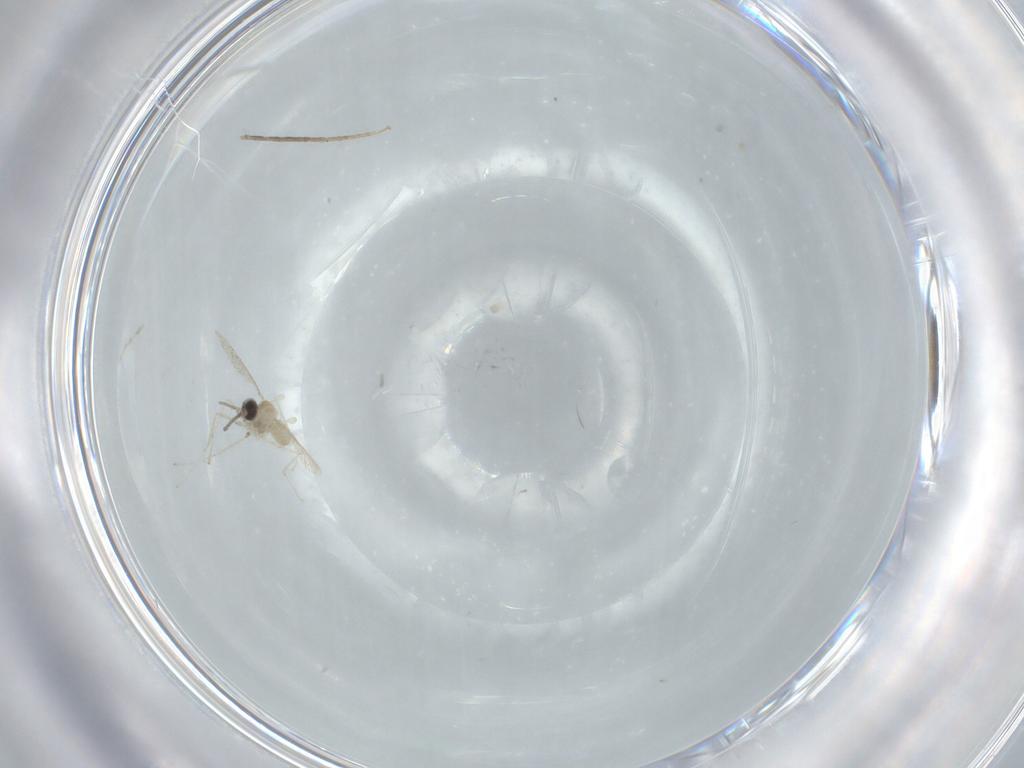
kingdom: Animalia
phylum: Arthropoda
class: Insecta
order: Diptera
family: Cecidomyiidae
